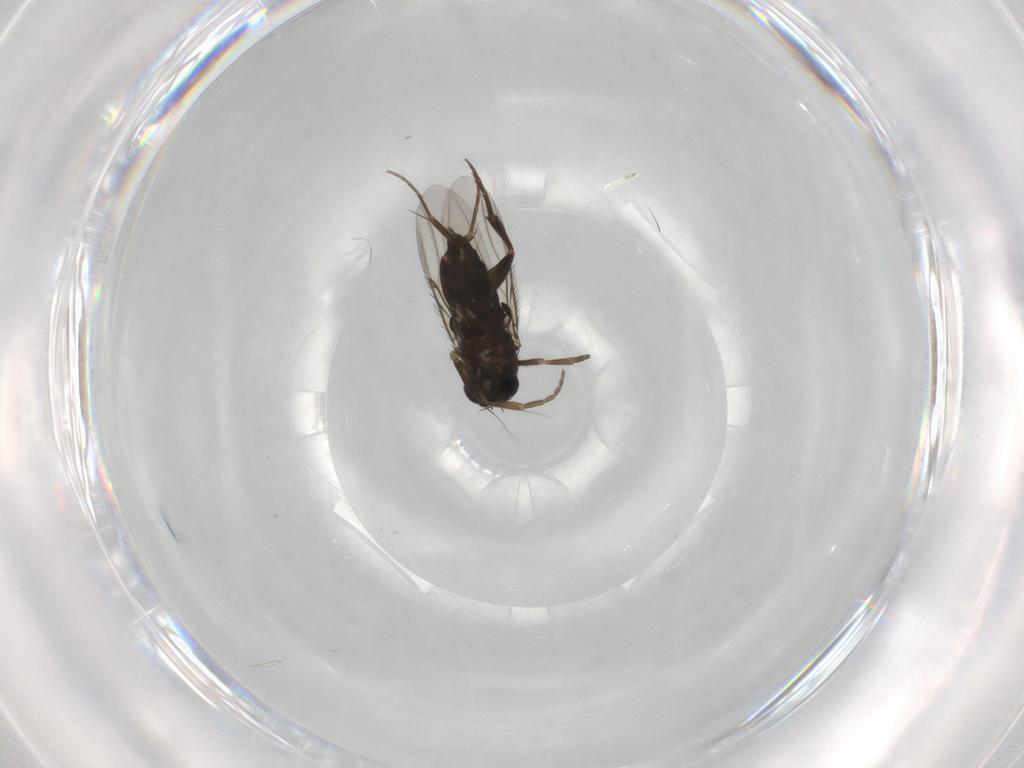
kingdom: Animalia
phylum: Arthropoda
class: Insecta
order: Diptera
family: Phoridae
